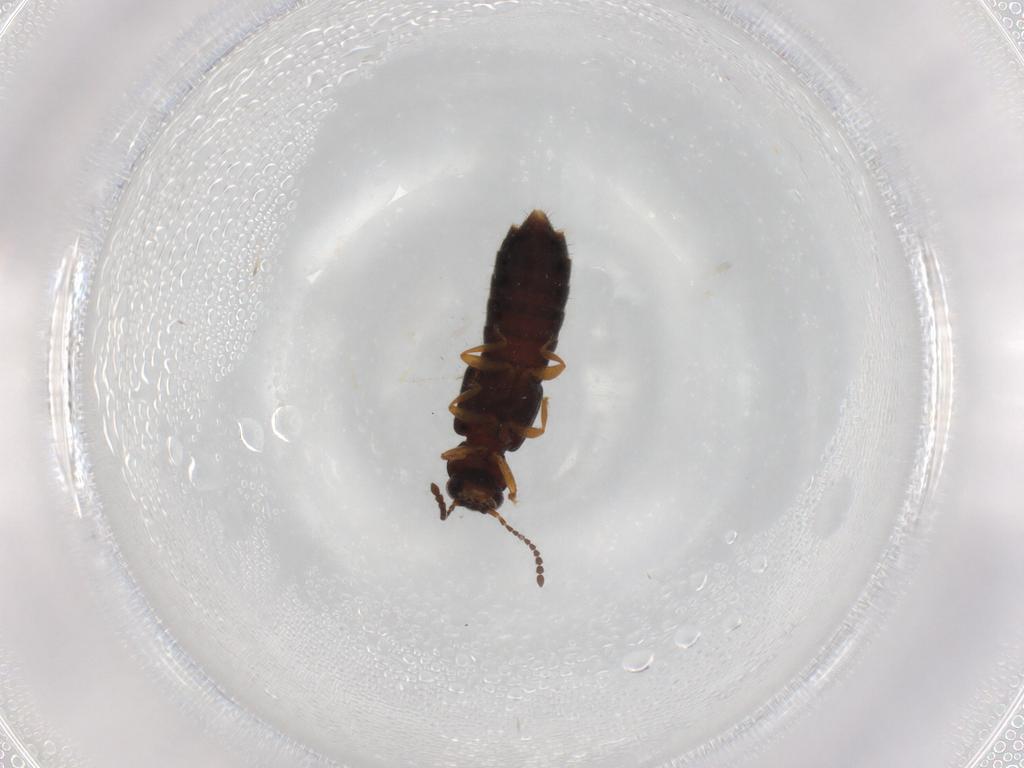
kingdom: Animalia
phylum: Arthropoda
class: Insecta
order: Coleoptera
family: Staphylinidae
